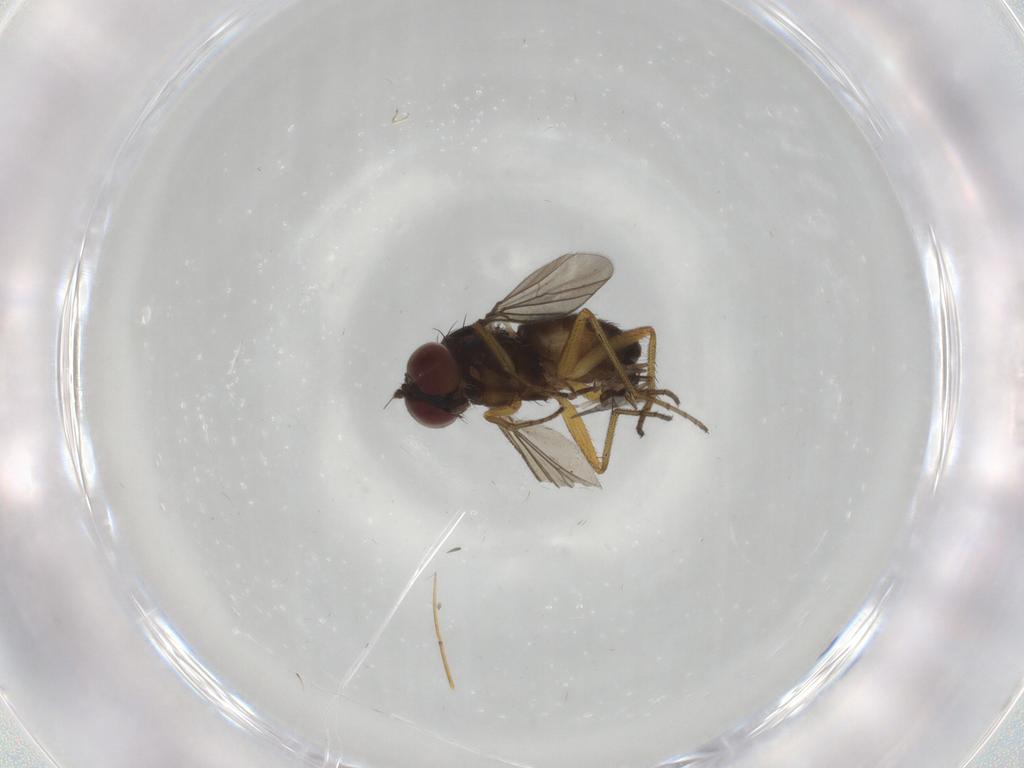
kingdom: Animalia
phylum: Arthropoda
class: Insecta
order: Diptera
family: Dolichopodidae
